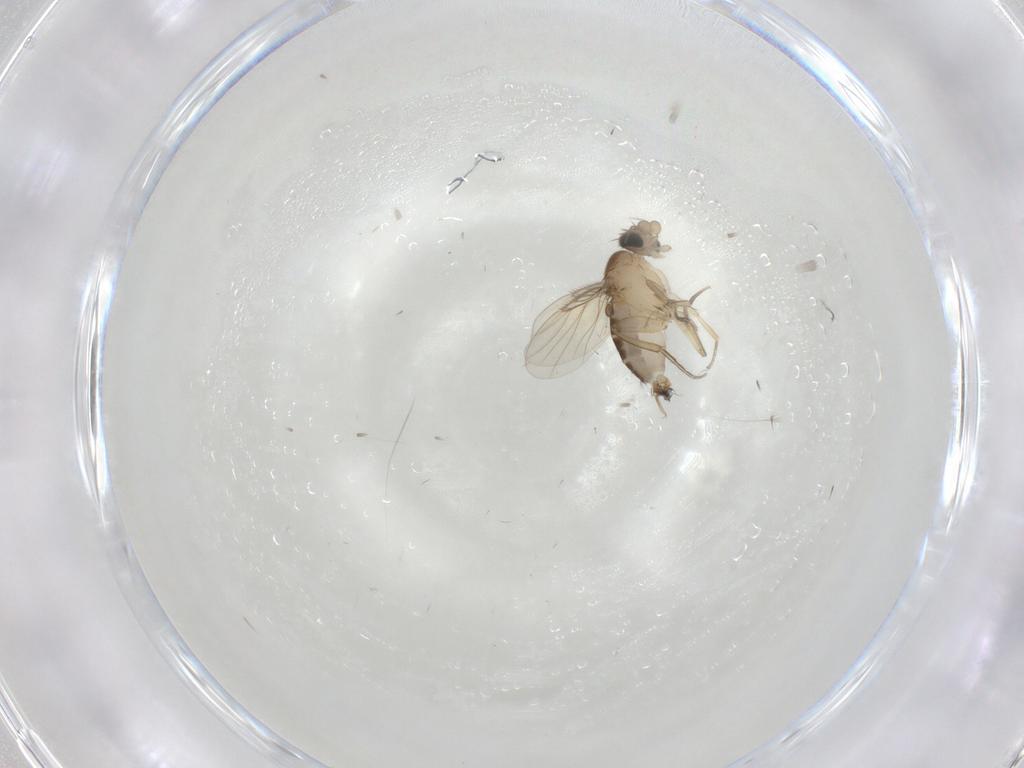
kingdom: Animalia
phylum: Arthropoda
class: Insecta
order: Diptera
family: Phoridae
